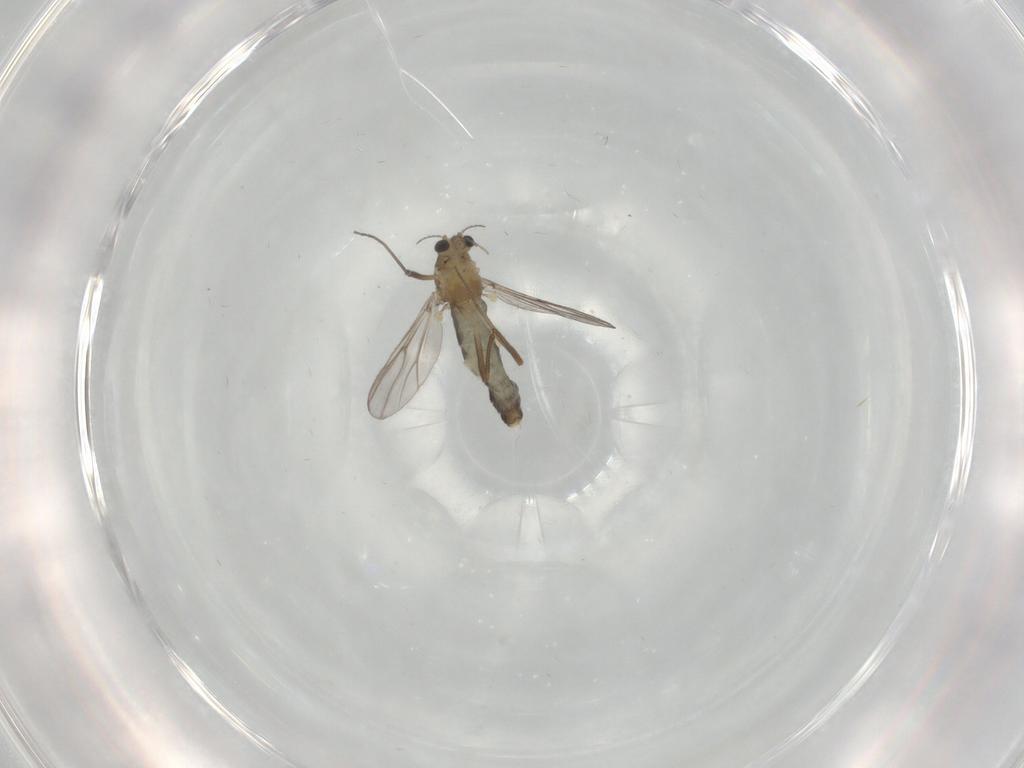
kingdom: Animalia
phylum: Arthropoda
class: Insecta
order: Diptera
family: Chironomidae
